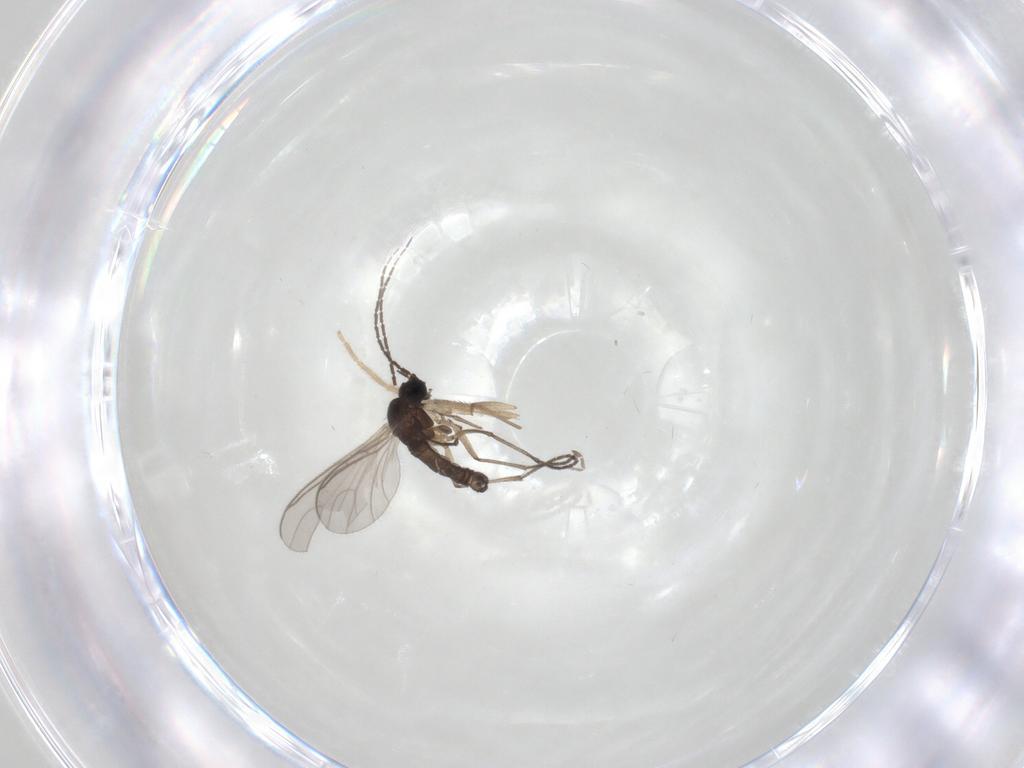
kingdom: Animalia
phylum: Arthropoda
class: Insecta
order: Diptera
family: Sciaridae
